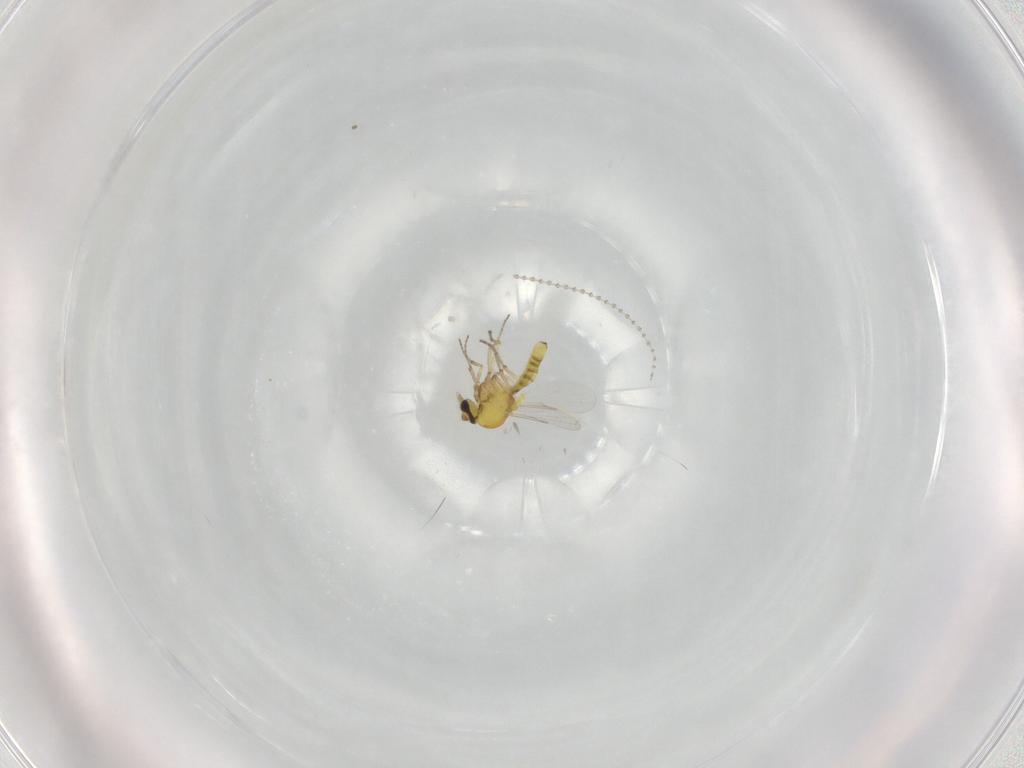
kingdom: Animalia
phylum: Arthropoda
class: Insecta
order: Diptera
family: Ceratopogonidae
